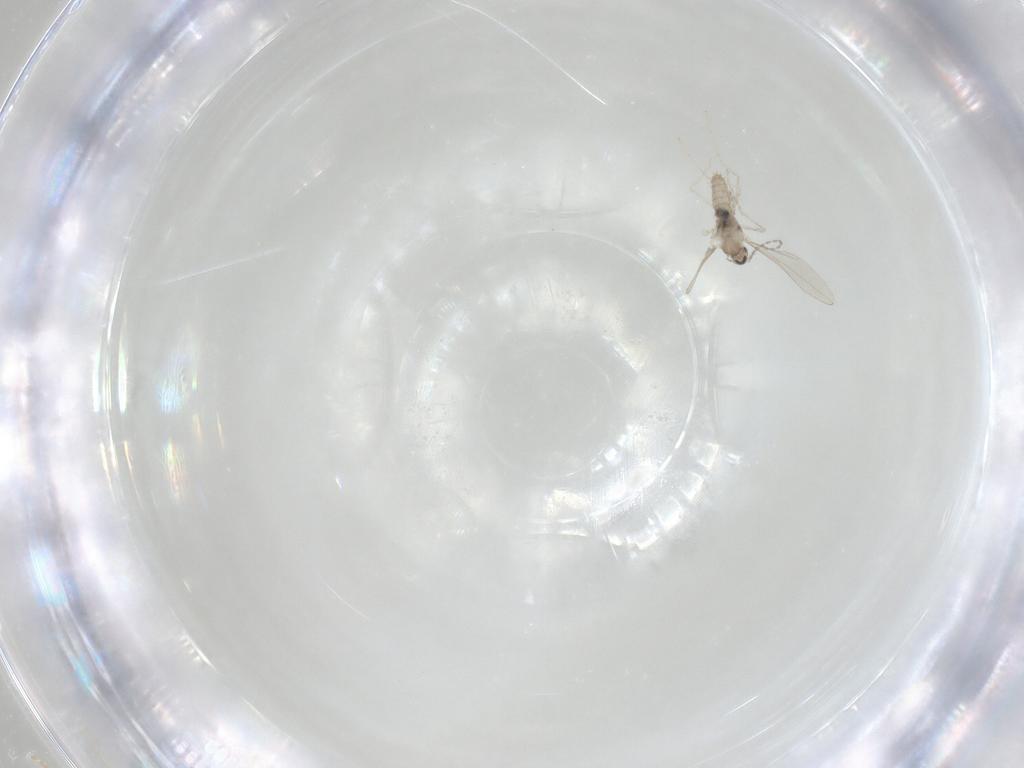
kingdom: Animalia
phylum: Arthropoda
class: Insecta
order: Diptera
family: Cecidomyiidae
